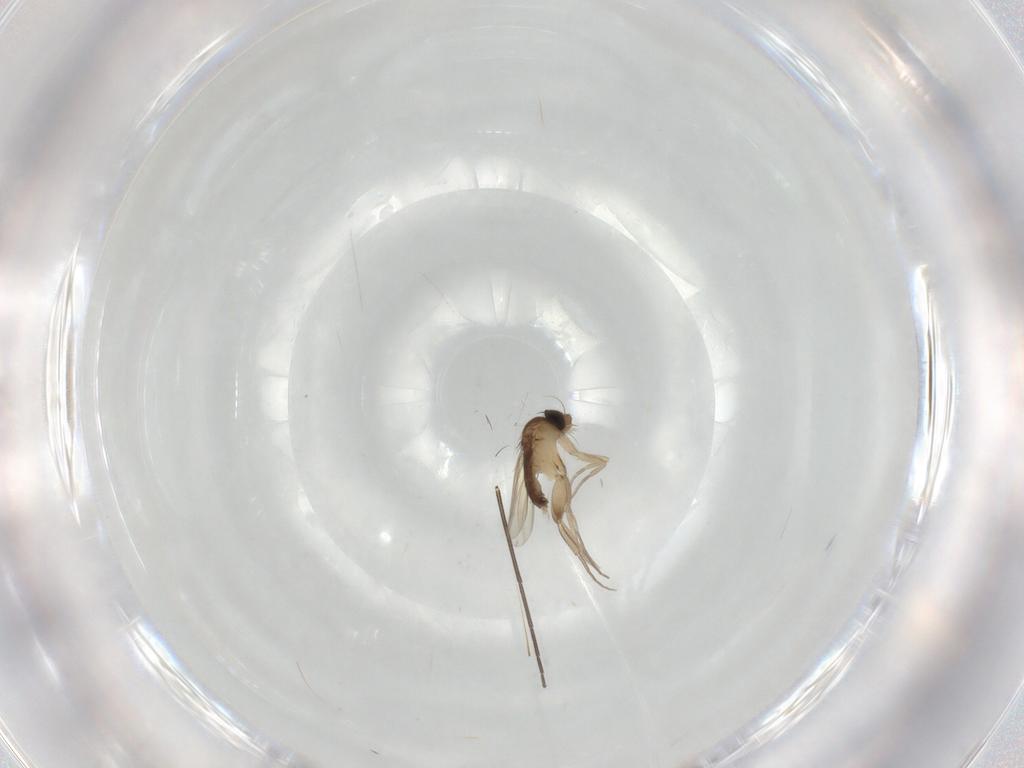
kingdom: Animalia
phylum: Arthropoda
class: Insecta
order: Diptera
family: Phoridae
